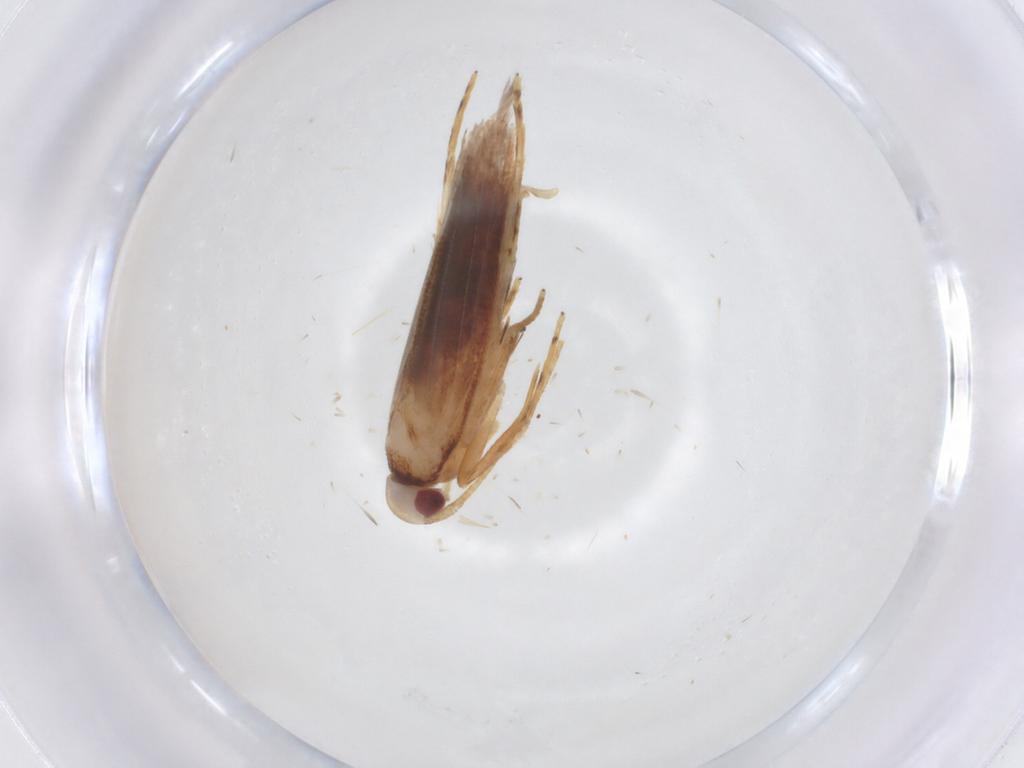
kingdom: Animalia
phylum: Arthropoda
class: Insecta
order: Lepidoptera
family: Cosmopterigidae
